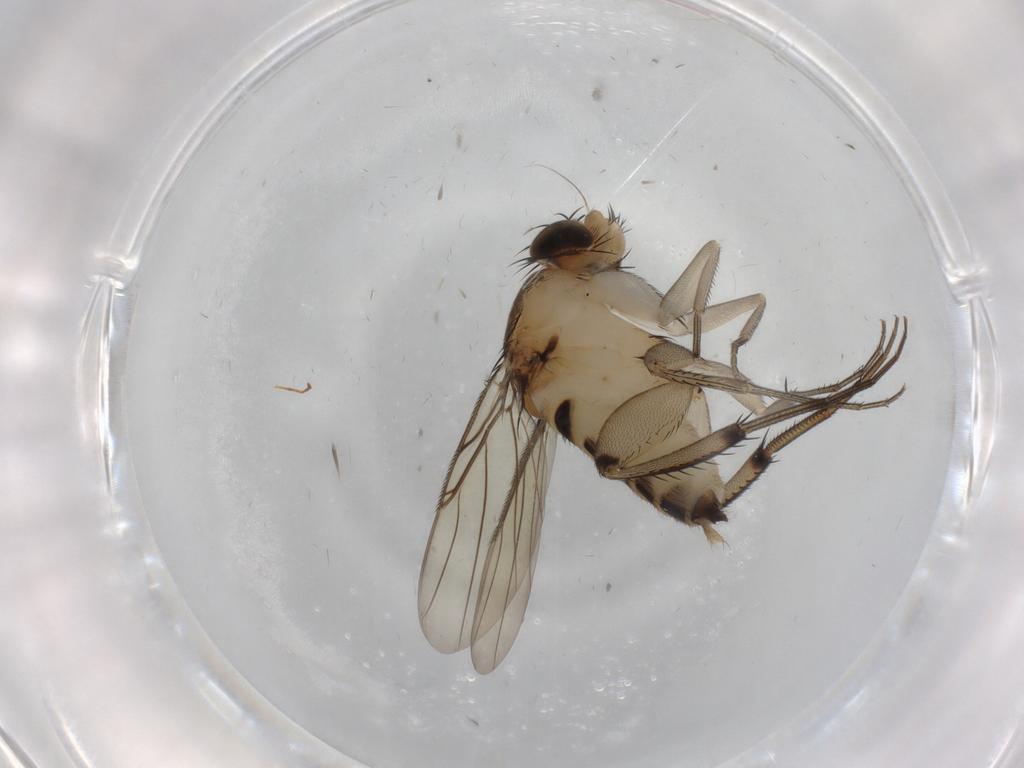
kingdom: Animalia
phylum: Arthropoda
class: Insecta
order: Diptera
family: Phoridae
